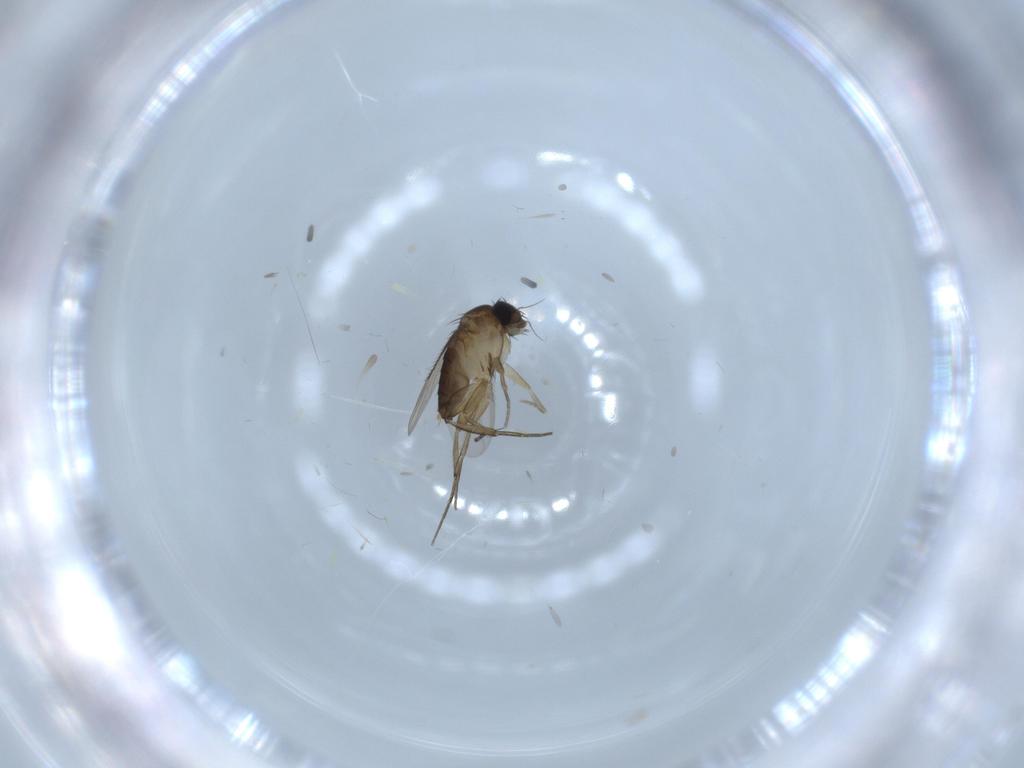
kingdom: Animalia
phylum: Arthropoda
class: Insecta
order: Diptera
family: Phoridae
